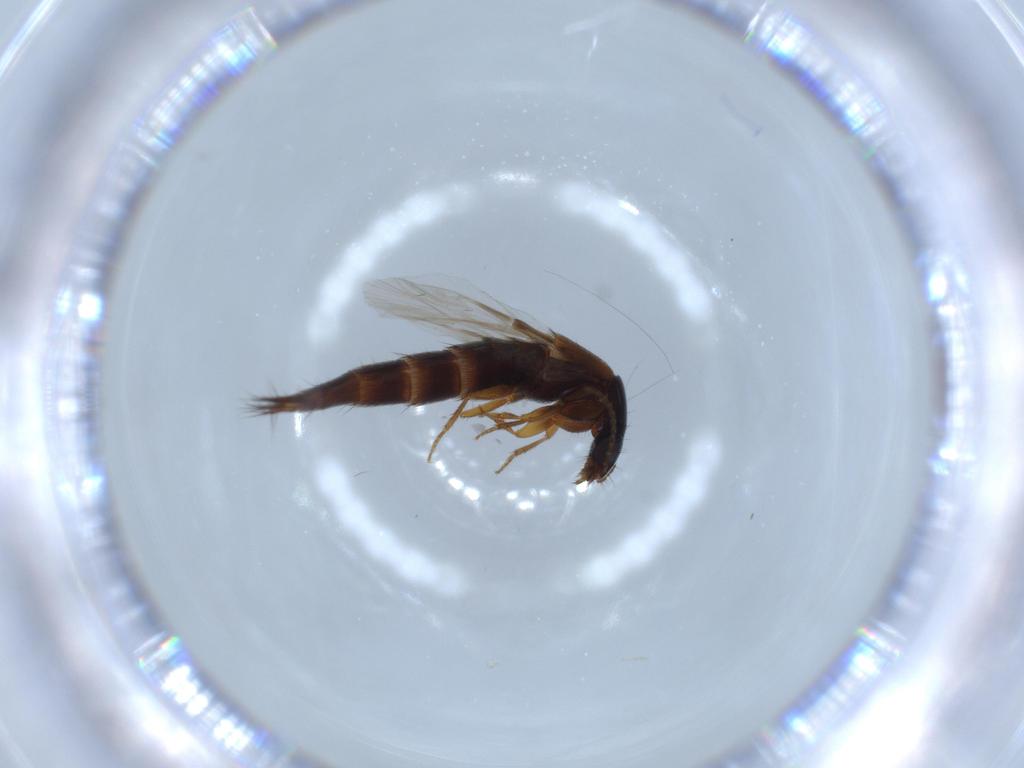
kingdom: Animalia
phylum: Arthropoda
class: Insecta
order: Coleoptera
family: Staphylinidae
